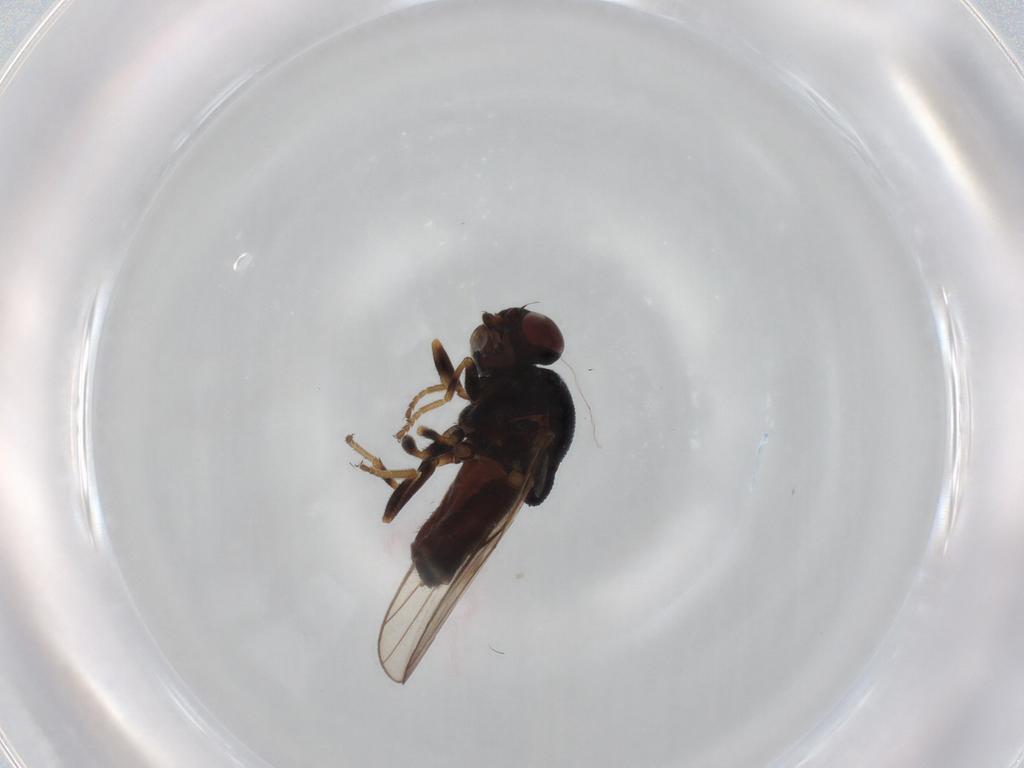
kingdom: Animalia
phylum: Arthropoda
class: Insecta
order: Diptera
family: Chloropidae
